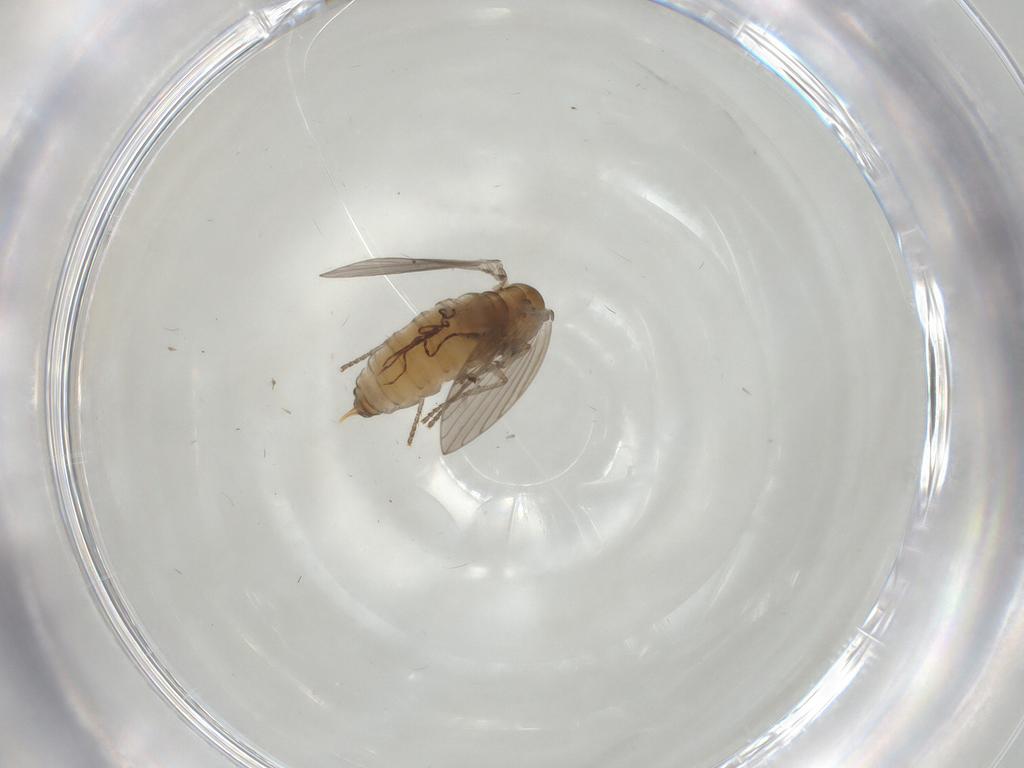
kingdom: Animalia
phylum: Arthropoda
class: Insecta
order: Diptera
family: Psychodidae
